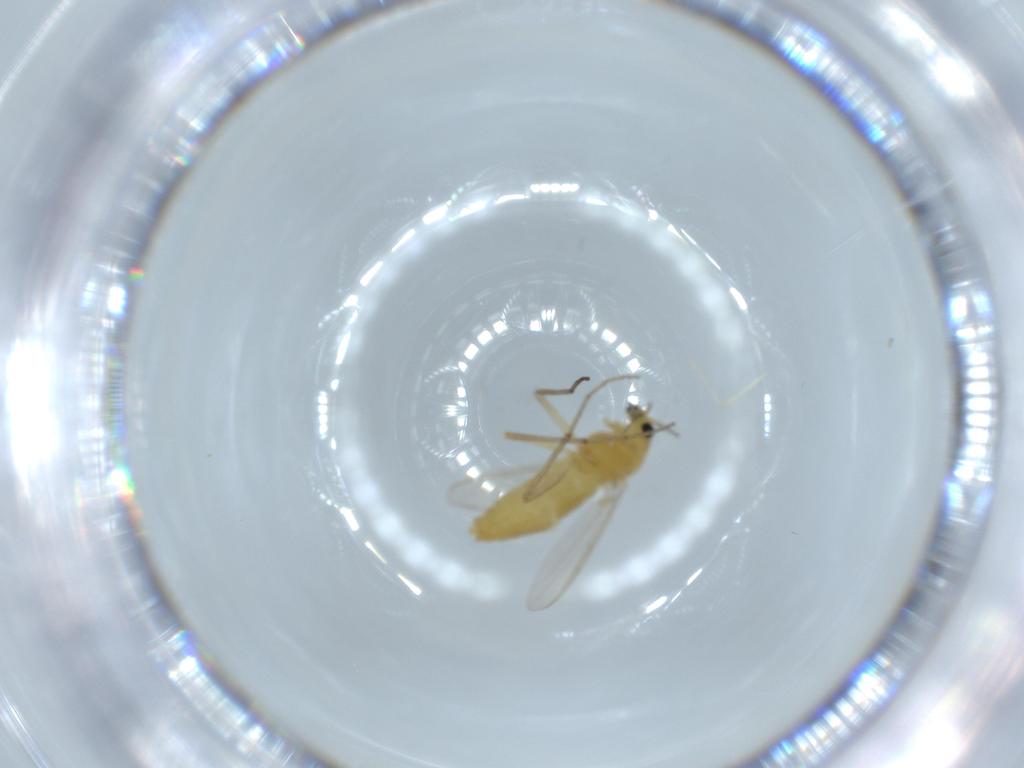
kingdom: Animalia
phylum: Arthropoda
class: Insecta
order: Diptera
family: Chironomidae
